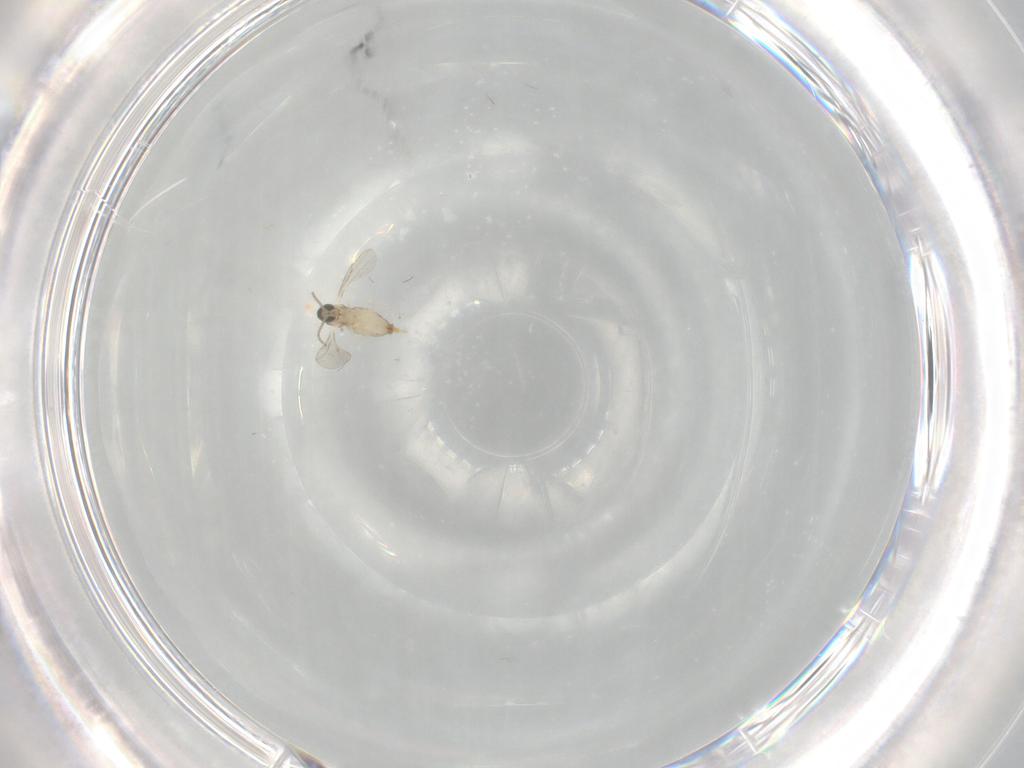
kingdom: Animalia
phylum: Arthropoda
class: Insecta
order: Diptera
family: Cecidomyiidae
